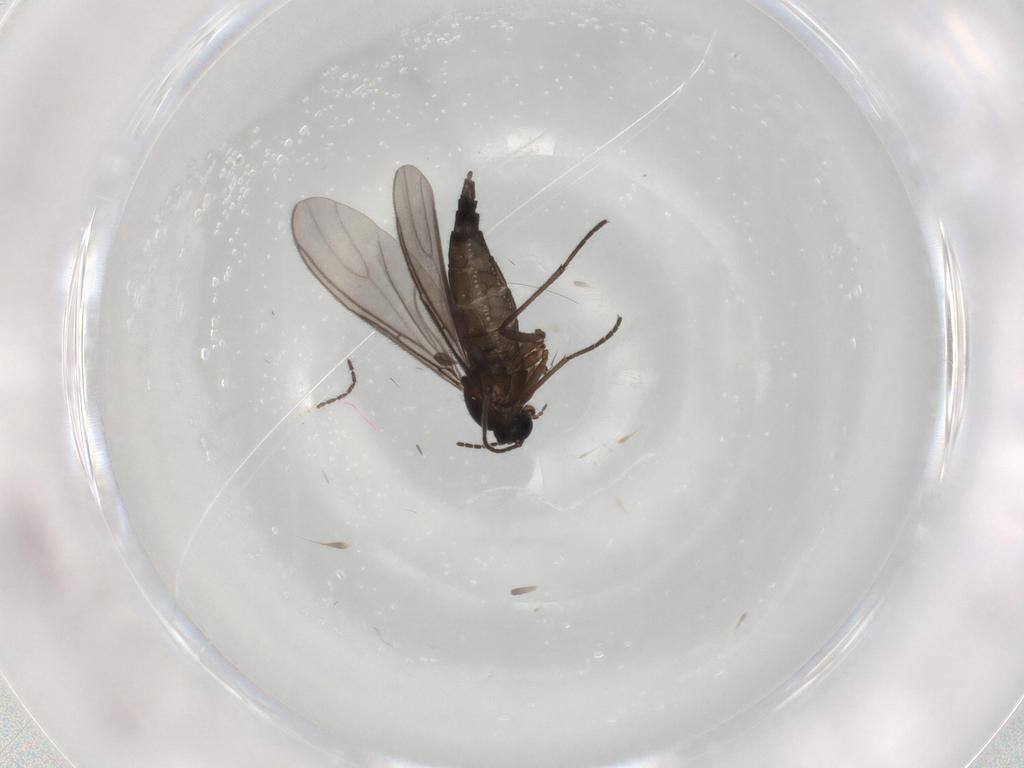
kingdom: Animalia
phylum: Arthropoda
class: Insecta
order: Diptera
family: Sciaridae
